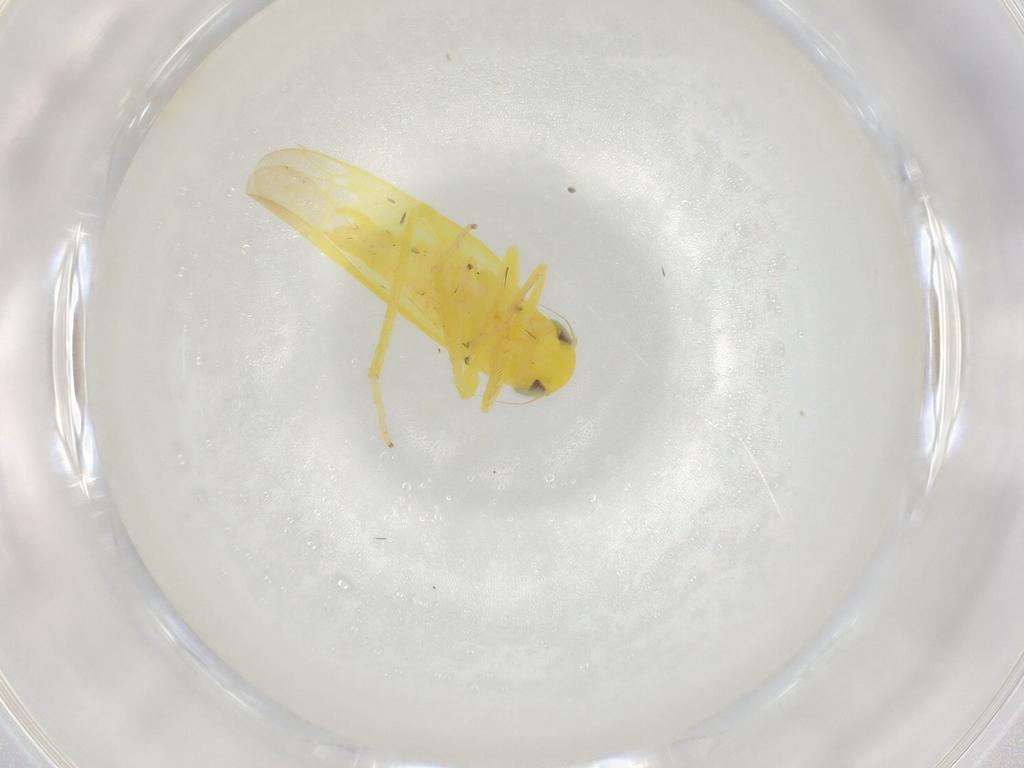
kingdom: Animalia
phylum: Arthropoda
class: Insecta
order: Hemiptera
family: Cicadellidae
